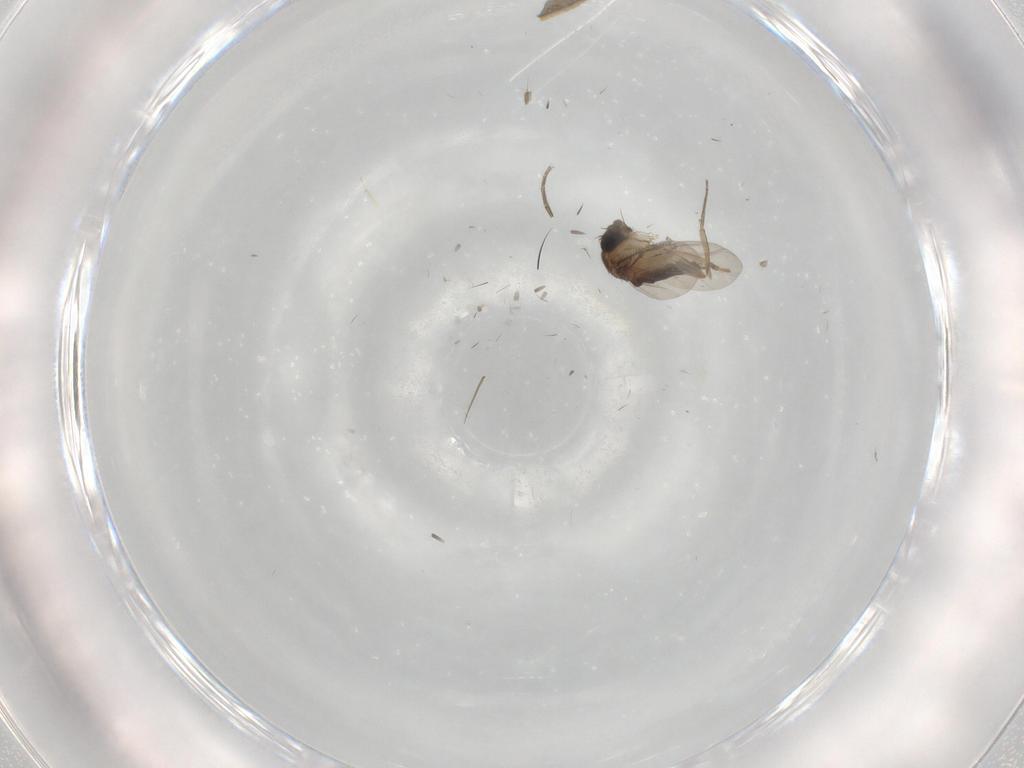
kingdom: Animalia
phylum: Arthropoda
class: Insecta
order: Diptera
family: Phoridae
